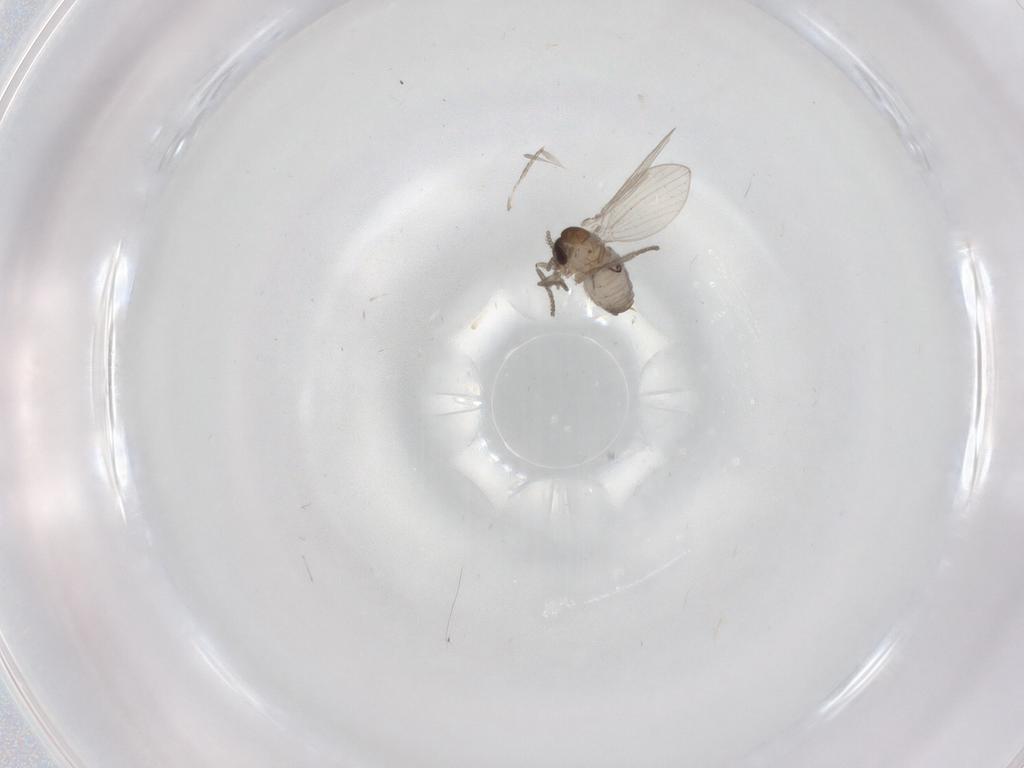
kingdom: Animalia
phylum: Arthropoda
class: Insecta
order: Diptera
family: Psychodidae
